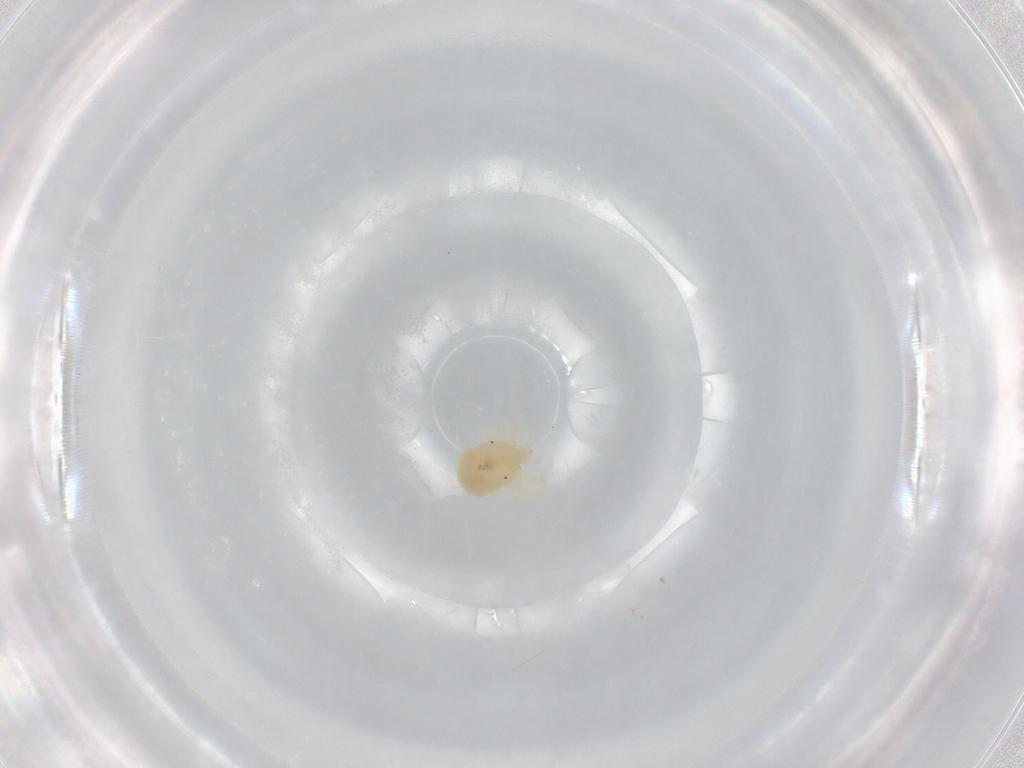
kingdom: Animalia
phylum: Arthropoda
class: Arachnida
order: Trombidiformes
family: Anystidae
